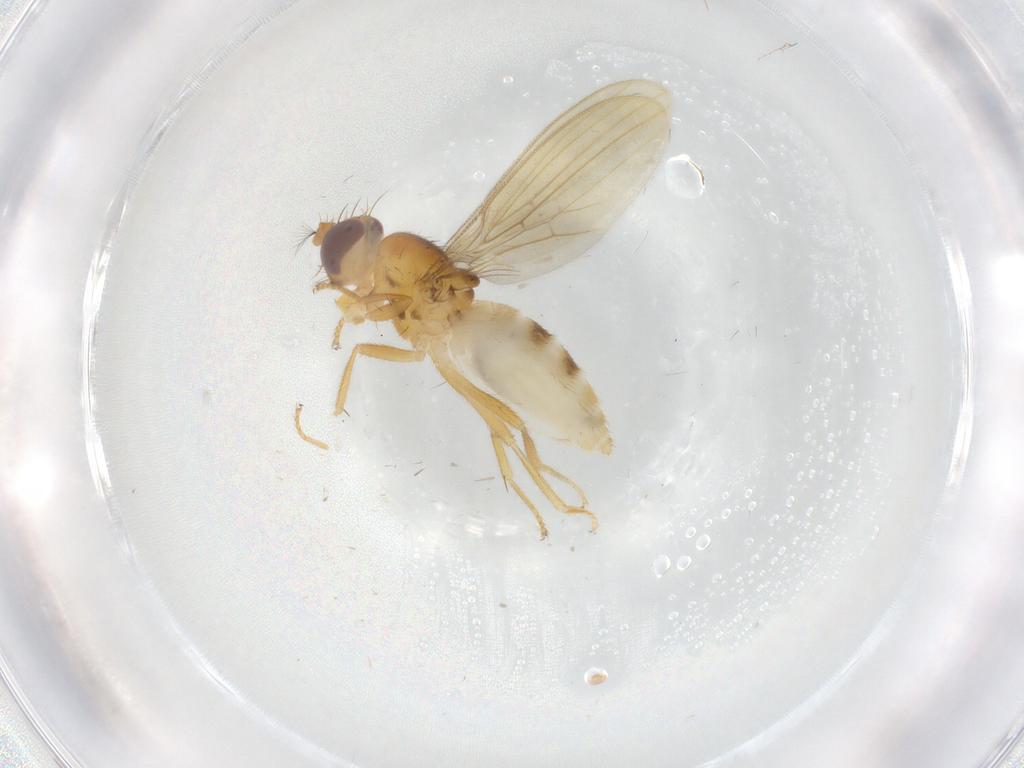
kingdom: Animalia
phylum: Arthropoda
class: Insecta
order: Diptera
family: Periscelididae
